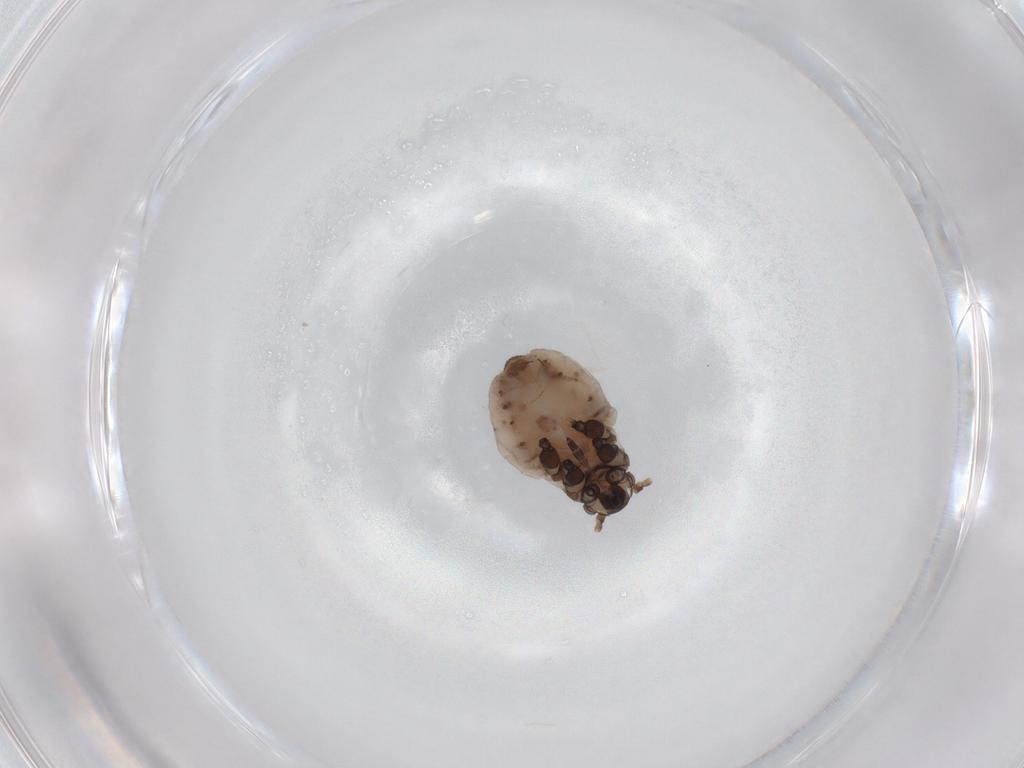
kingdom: Animalia
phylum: Arthropoda
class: Insecta
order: Hemiptera
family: Aphididae
